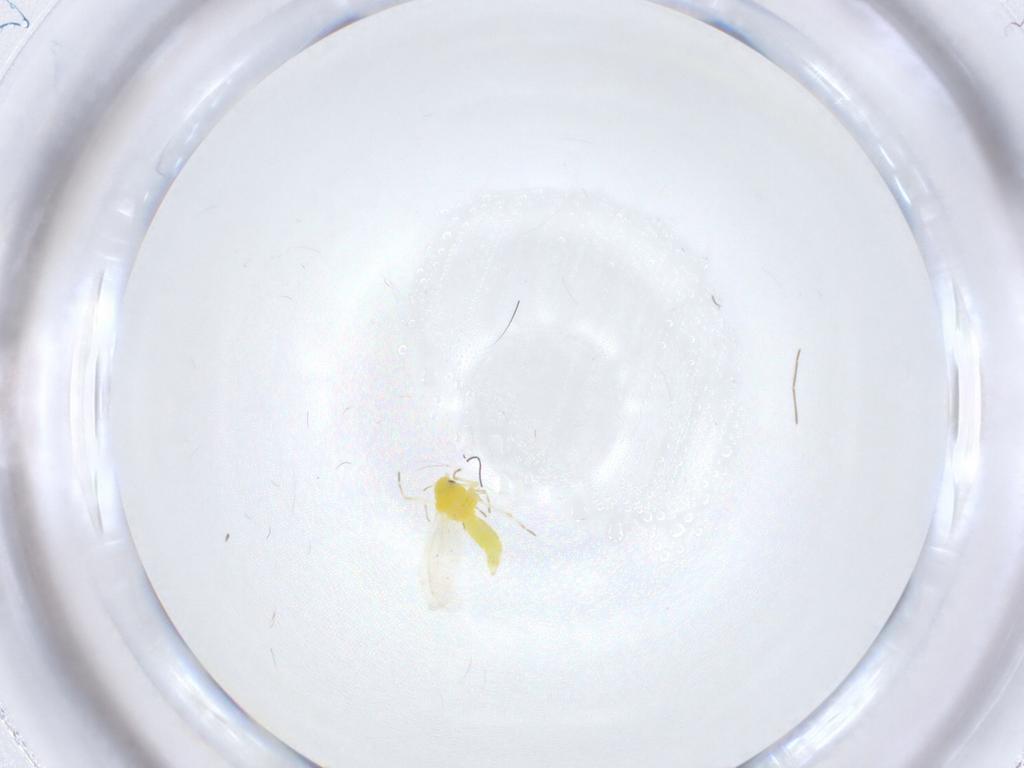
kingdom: Animalia
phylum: Arthropoda
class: Insecta
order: Hemiptera
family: Aleyrodidae
